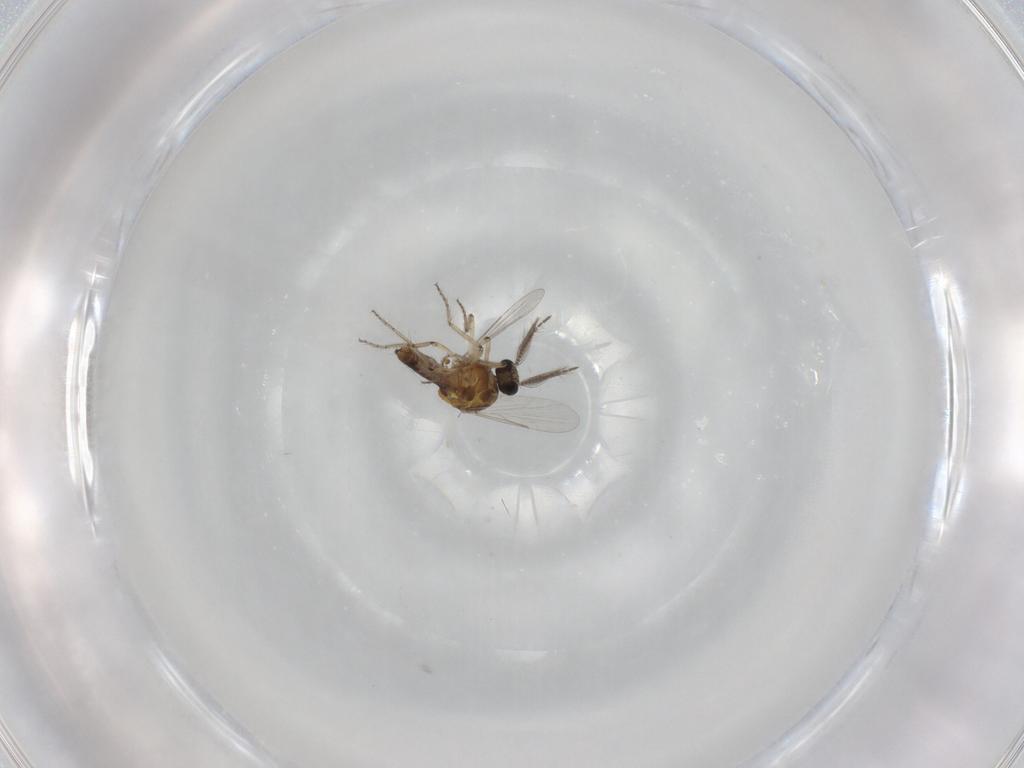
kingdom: Animalia
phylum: Arthropoda
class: Insecta
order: Diptera
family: Ceratopogonidae
